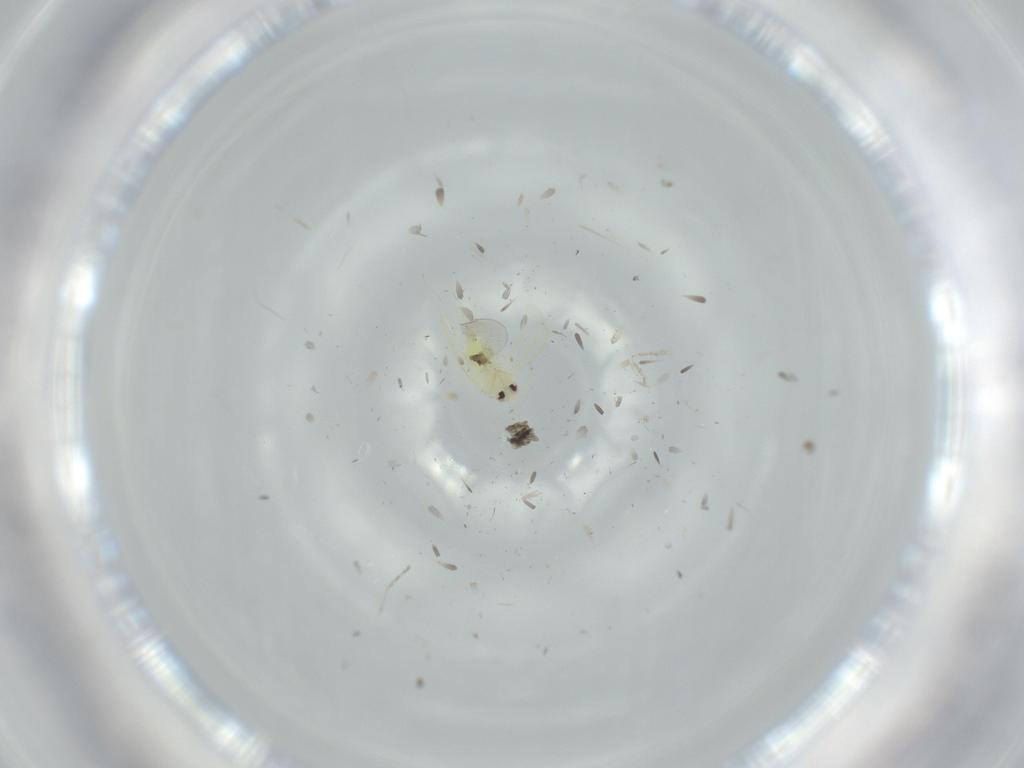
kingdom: Animalia
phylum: Arthropoda
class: Insecta
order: Hemiptera
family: Aleyrodidae
